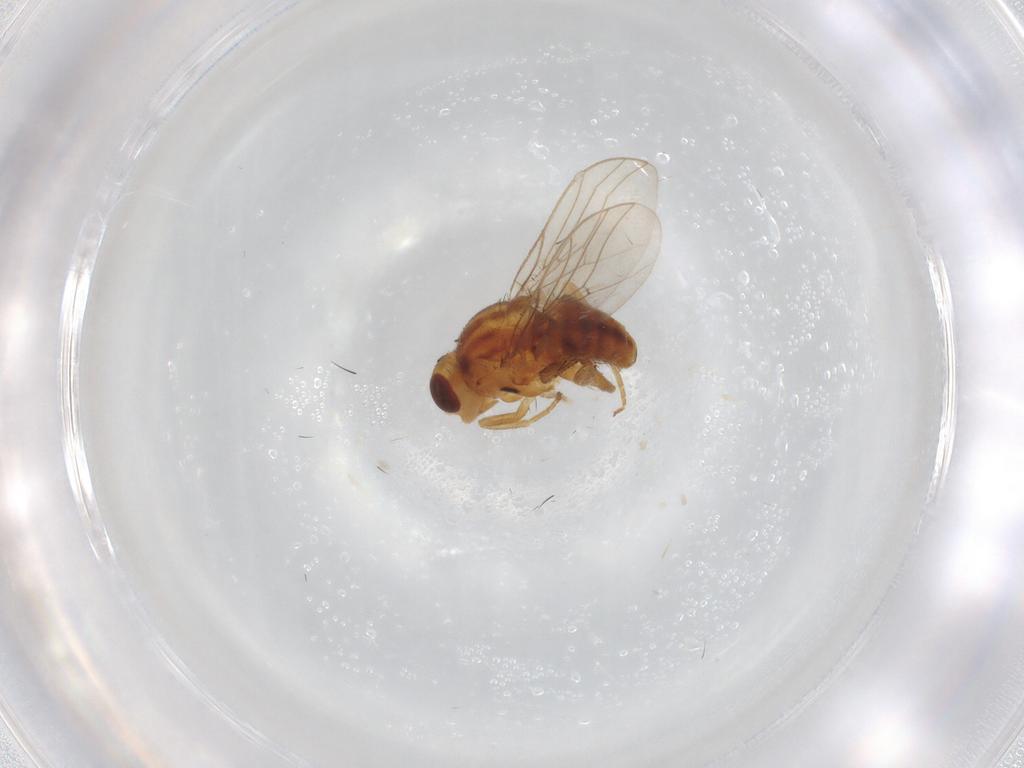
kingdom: Animalia
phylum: Arthropoda
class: Insecta
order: Diptera
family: Chloropidae
